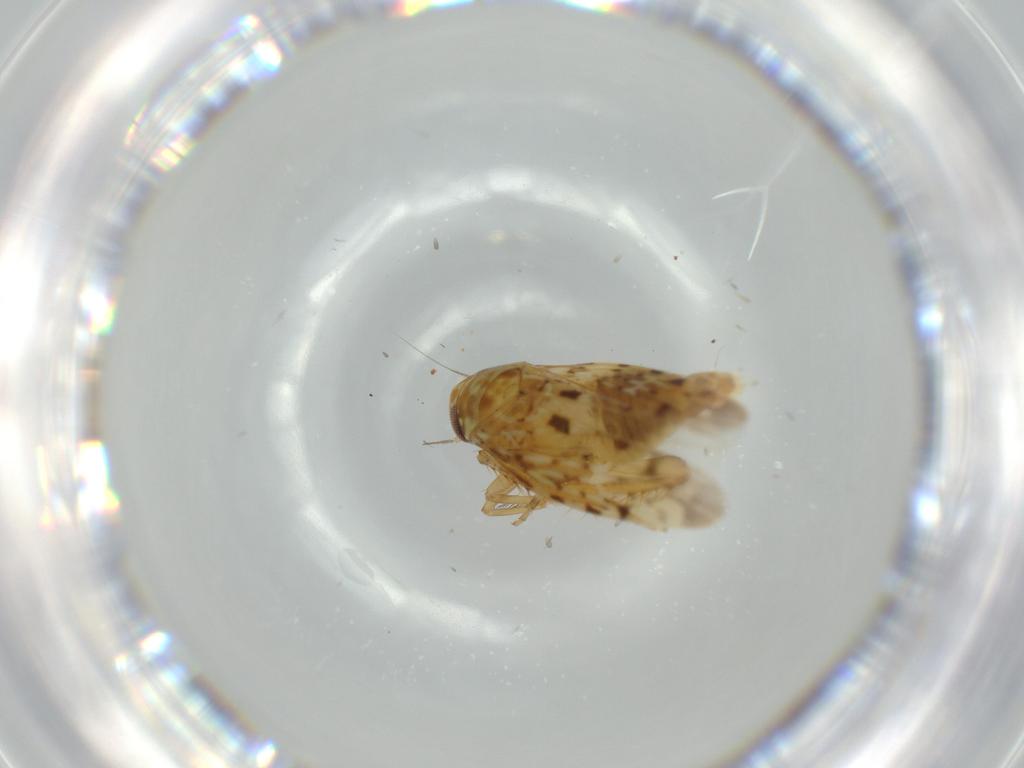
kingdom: Animalia
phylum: Arthropoda
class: Insecta
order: Hemiptera
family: Cicadellidae
